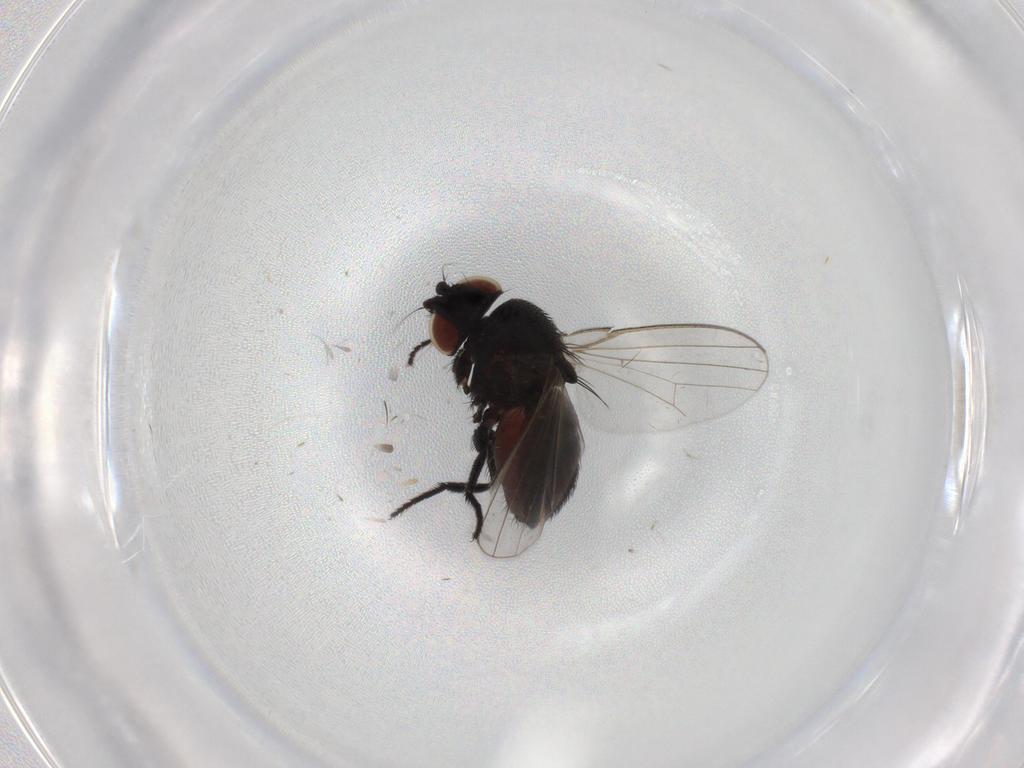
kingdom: Animalia
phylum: Arthropoda
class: Insecta
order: Diptera
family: Milichiidae
